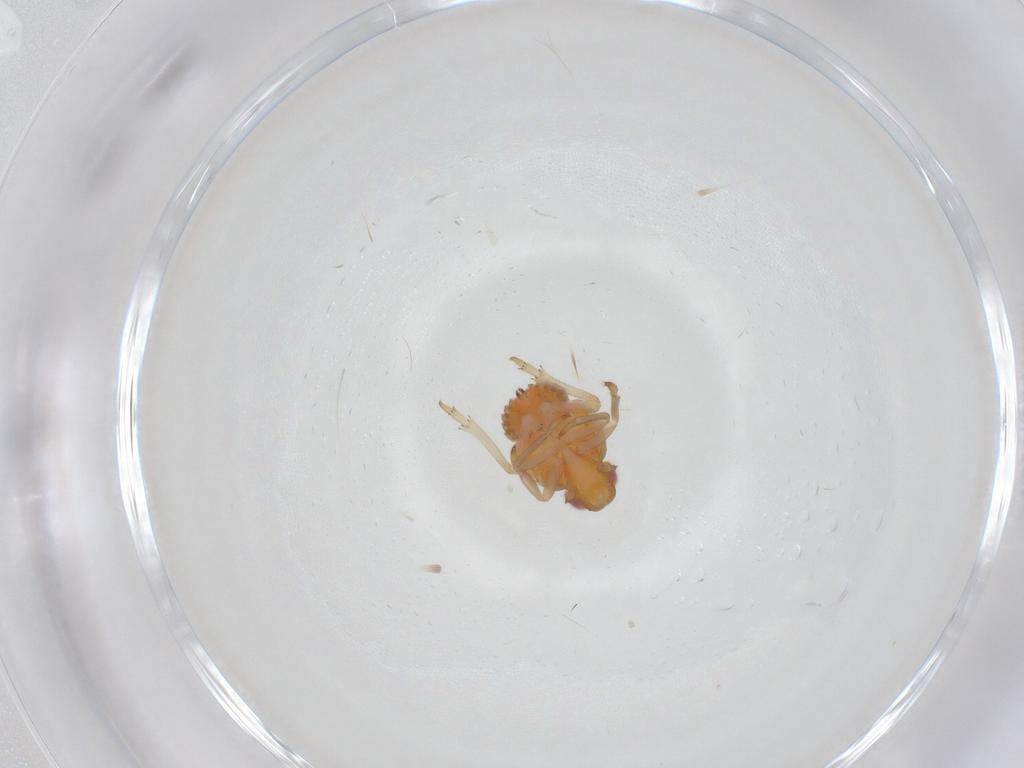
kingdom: Animalia
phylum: Arthropoda
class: Insecta
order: Hemiptera
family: Fulgoroidea_incertae_sedis
